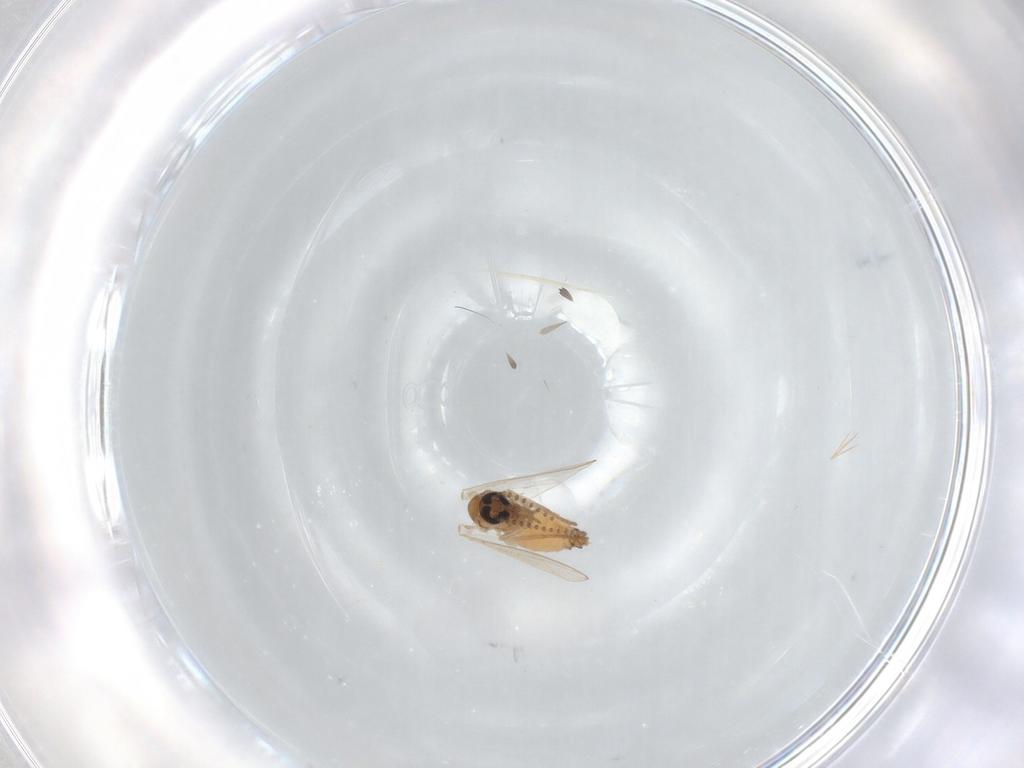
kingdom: Animalia
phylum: Arthropoda
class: Insecta
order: Diptera
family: Psychodidae
